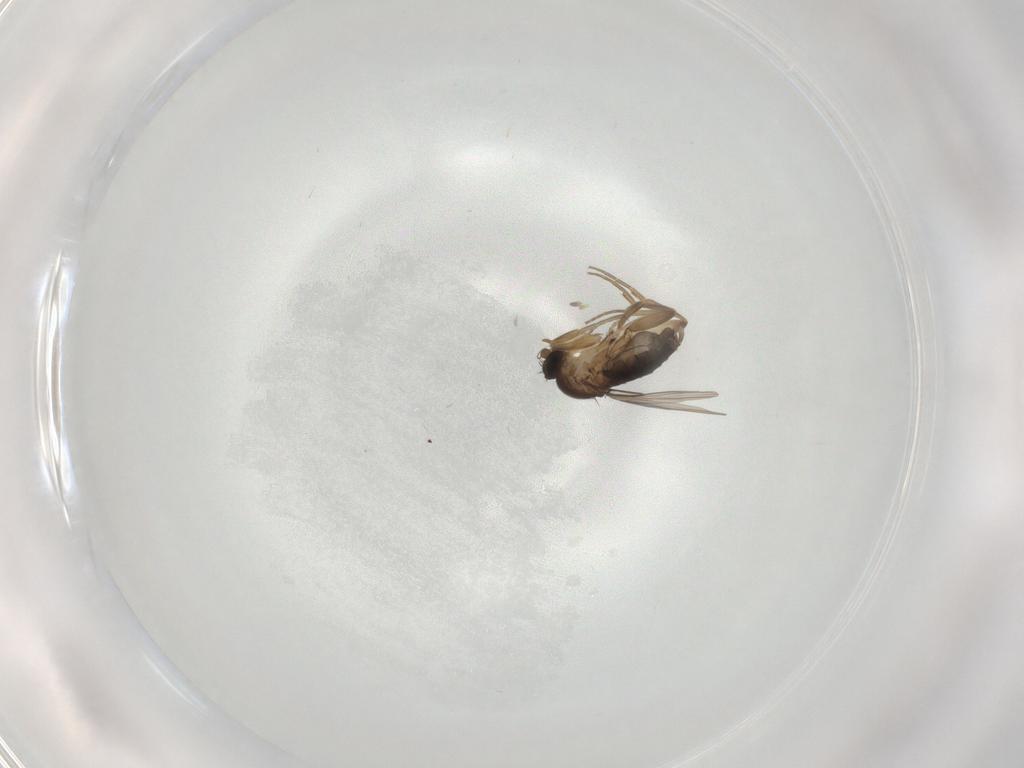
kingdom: Animalia
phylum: Arthropoda
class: Insecta
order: Diptera
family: Phoridae
